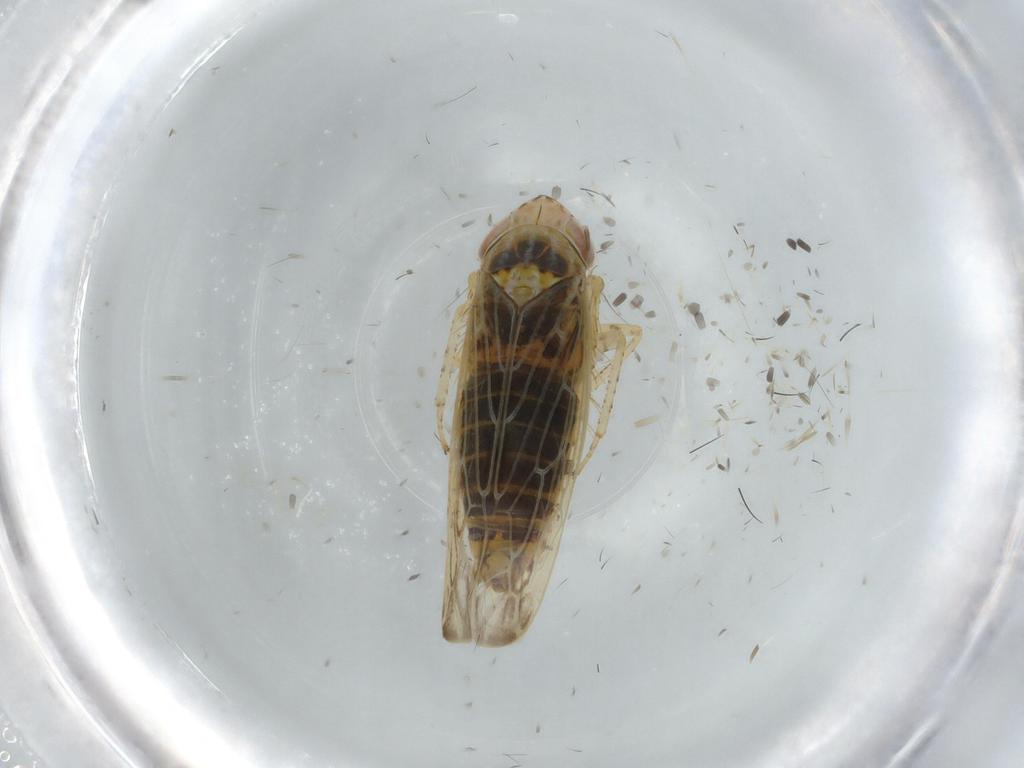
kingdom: Animalia
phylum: Arthropoda
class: Insecta
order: Hemiptera
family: Cicadellidae
